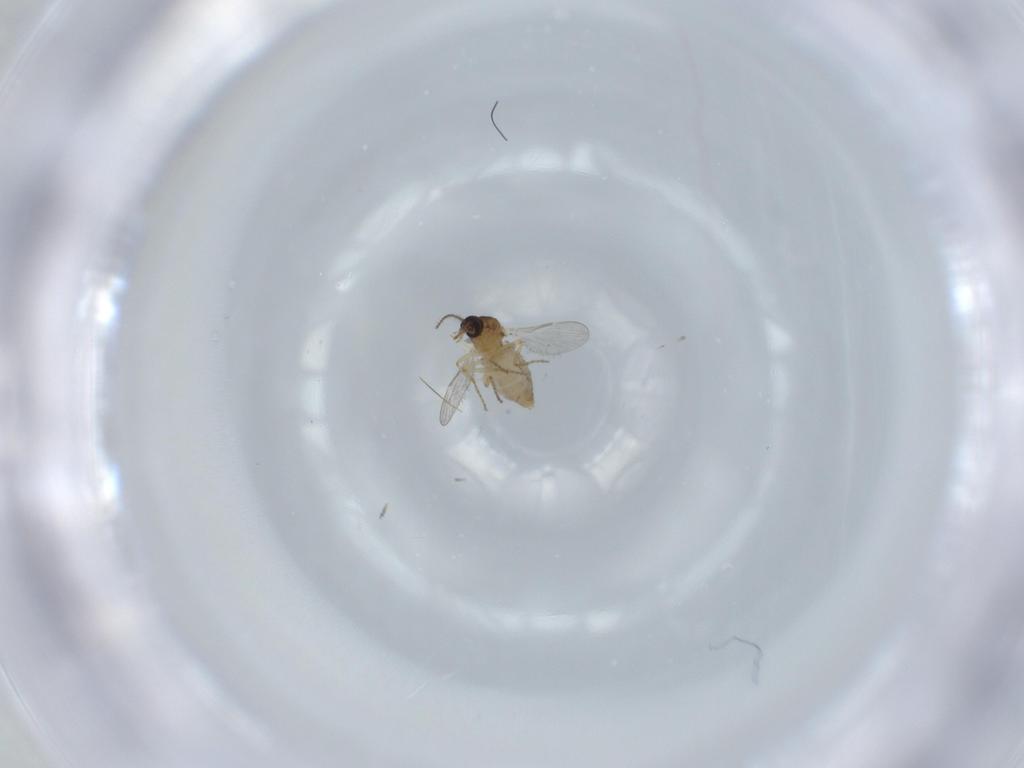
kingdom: Animalia
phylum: Arthropoda
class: Insecta
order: Diptera
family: Ceratopogonidae
